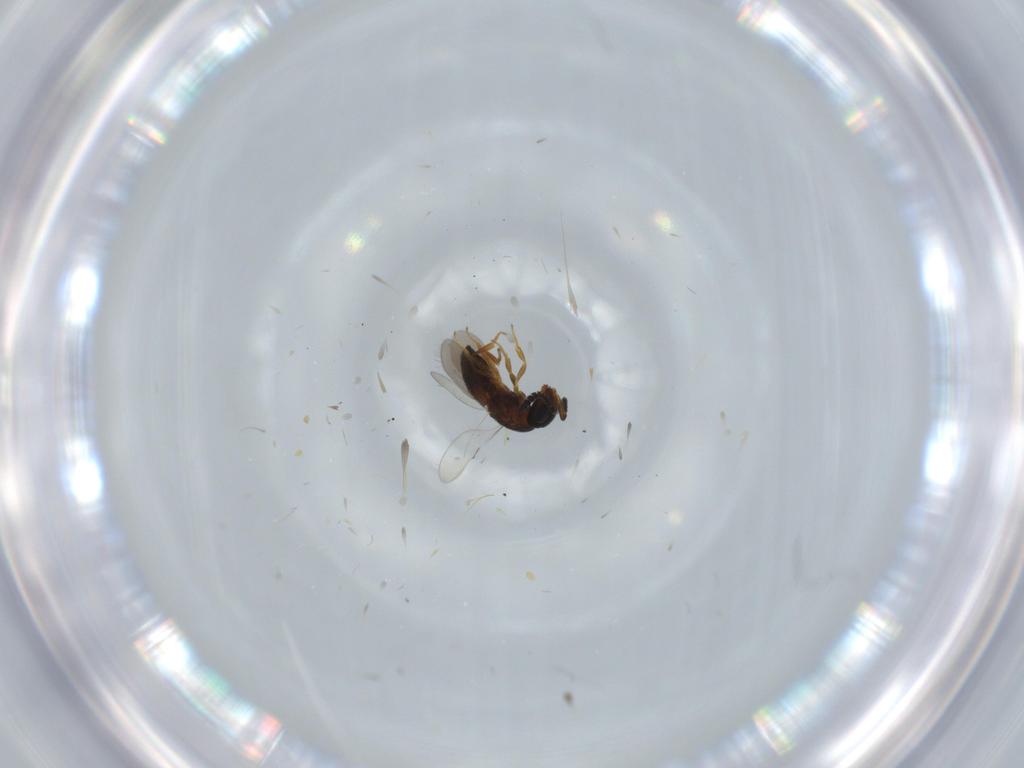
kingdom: Animalia
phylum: Arthropoda
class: Insecta
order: Hymenoptera
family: Scelionidae
